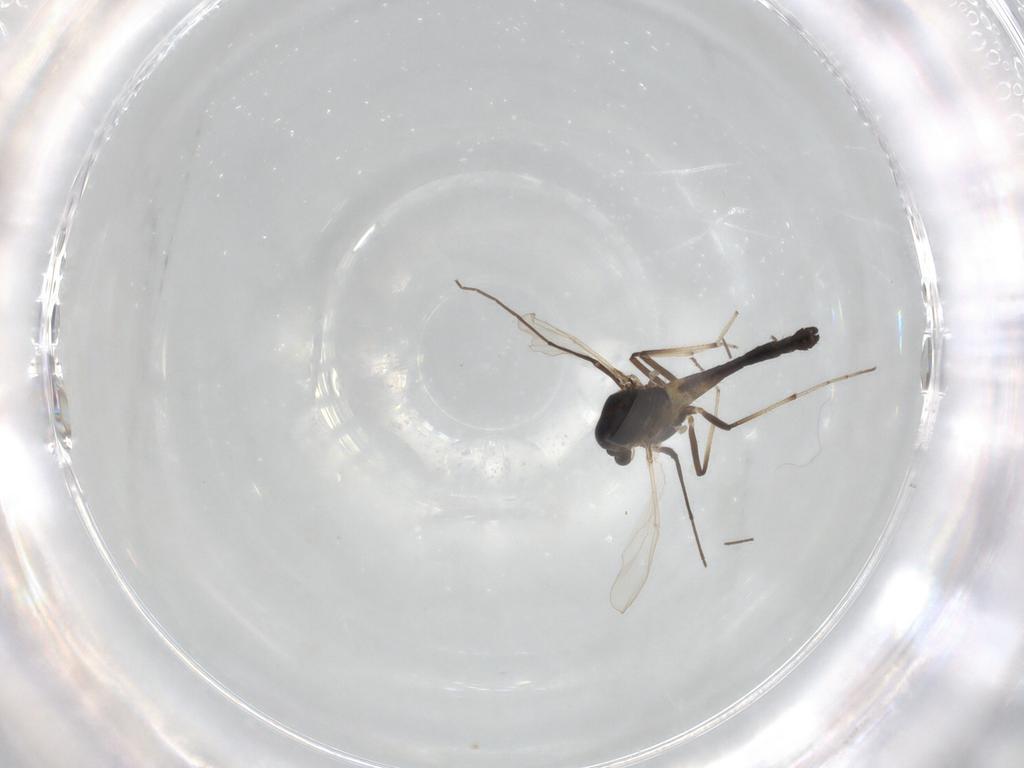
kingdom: Animalia
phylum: Arthropoda
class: Insecta
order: Diptera
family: Chironomidae
